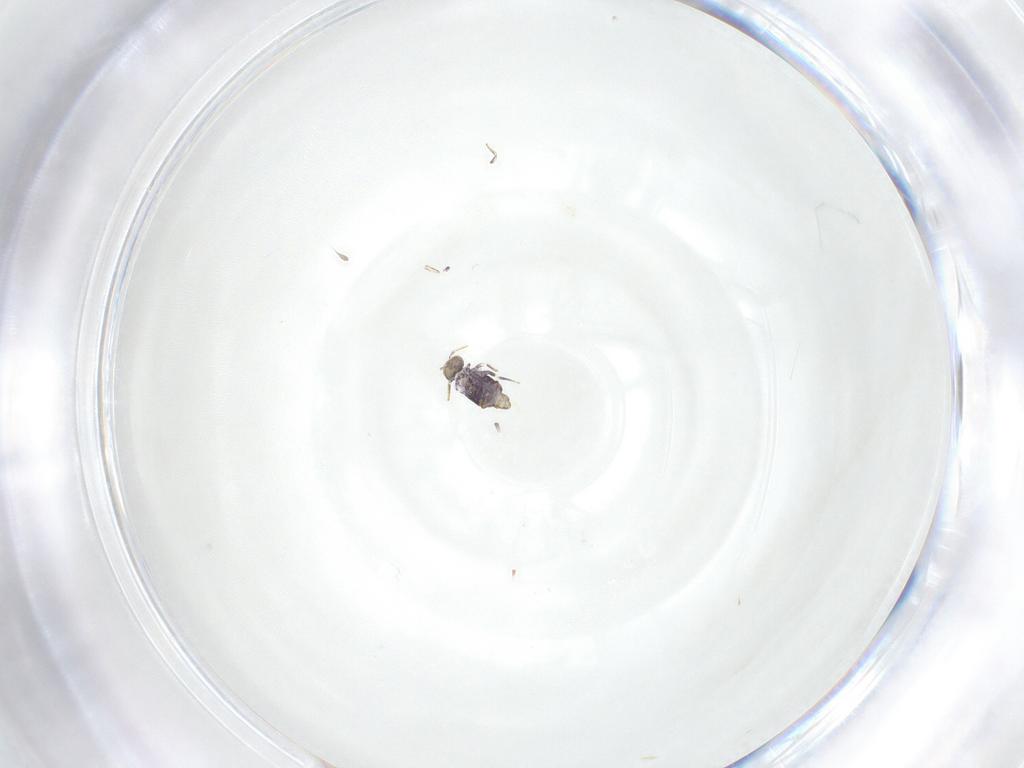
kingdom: Animalia
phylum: Arthropoda
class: Collembola
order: Symphypleona
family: Katiannidae
